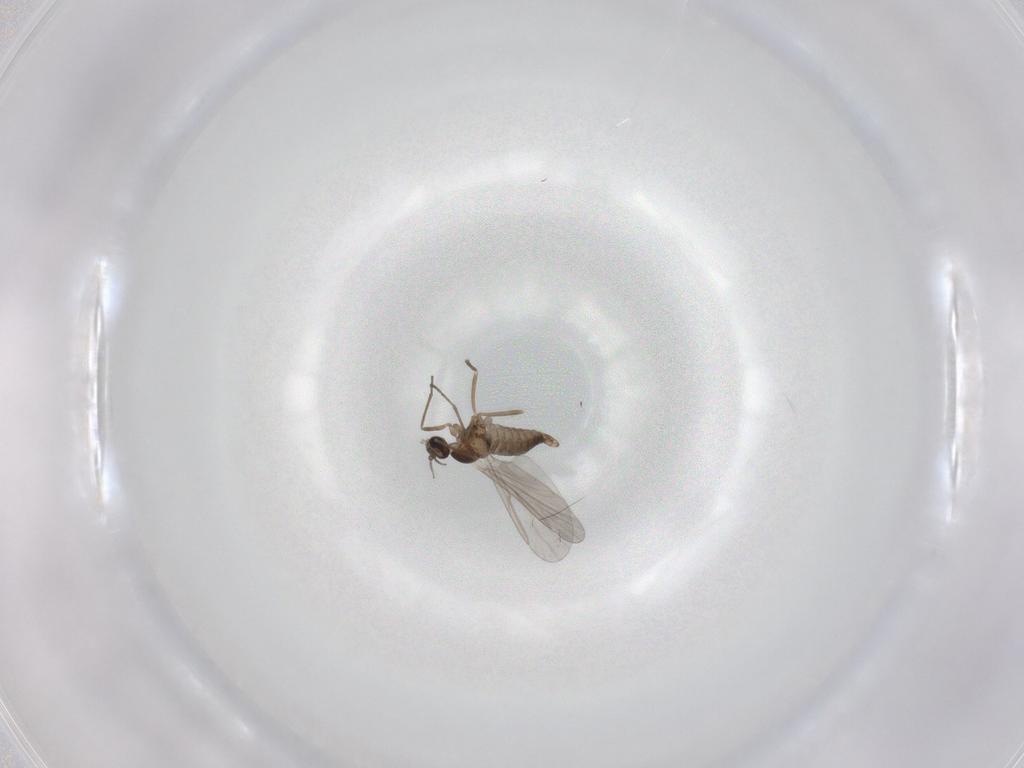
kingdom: Animalia
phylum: Arthropoda
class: Insecta
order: Diptera
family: Cecidomyiidae
